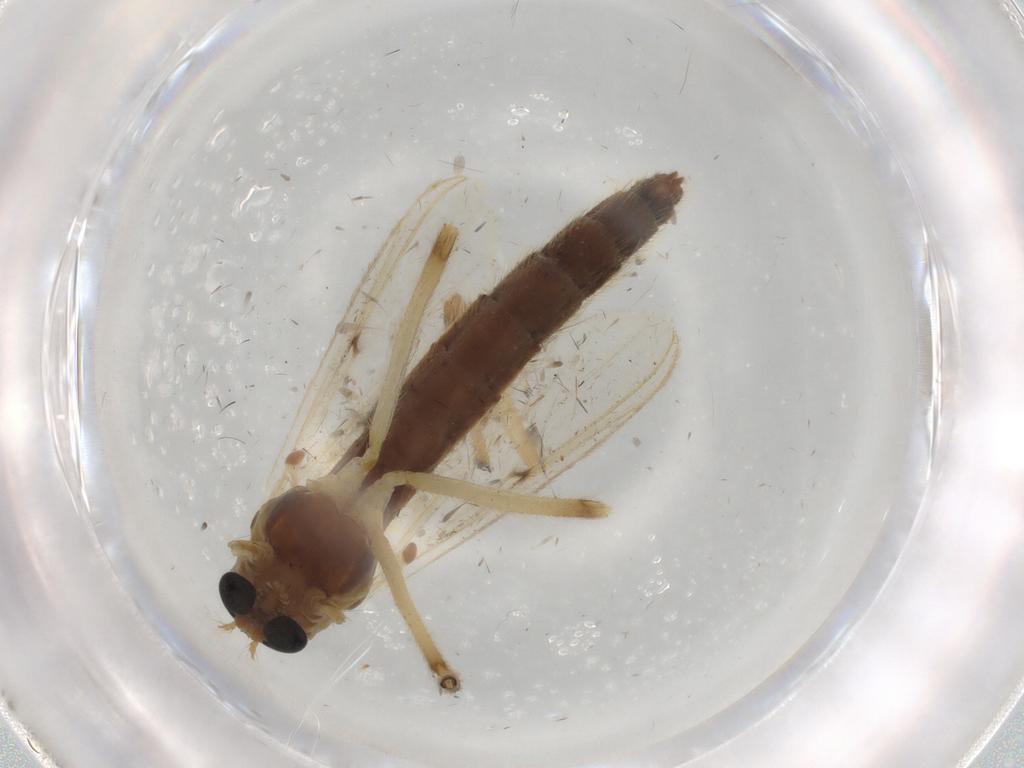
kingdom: Animalia
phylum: Arthropoda
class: Insecta
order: Diptera
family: Chironomidae
